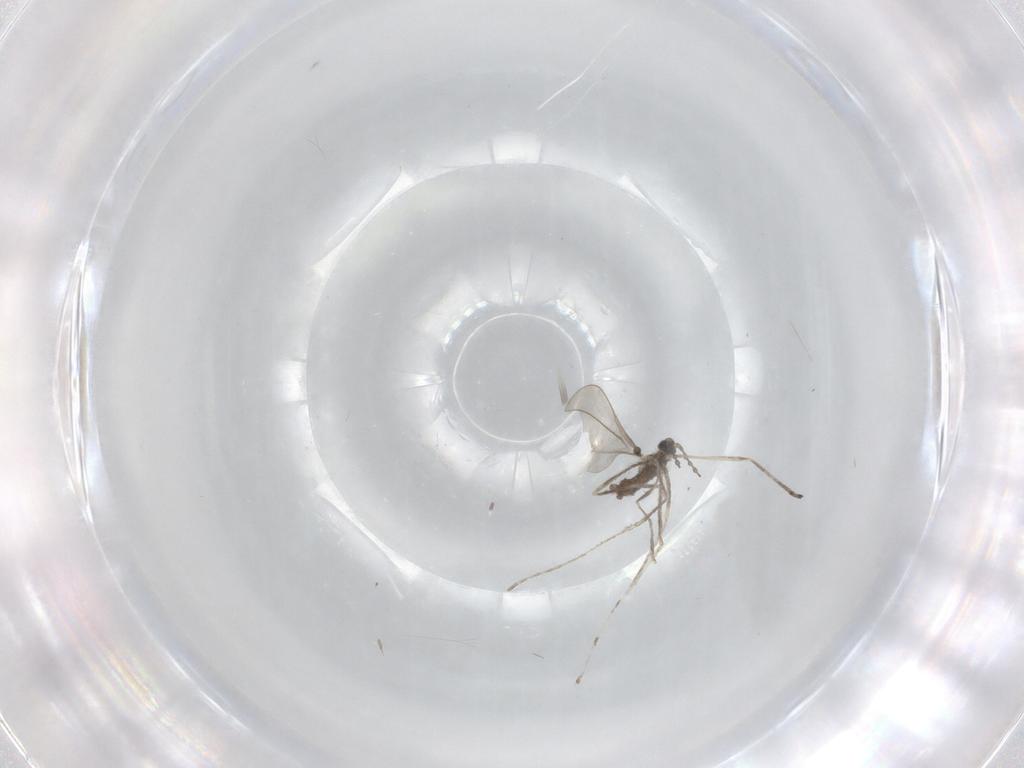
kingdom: Animalia
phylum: Arthropoda
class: Insecta
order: Diptera
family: Cecidomyiidae
